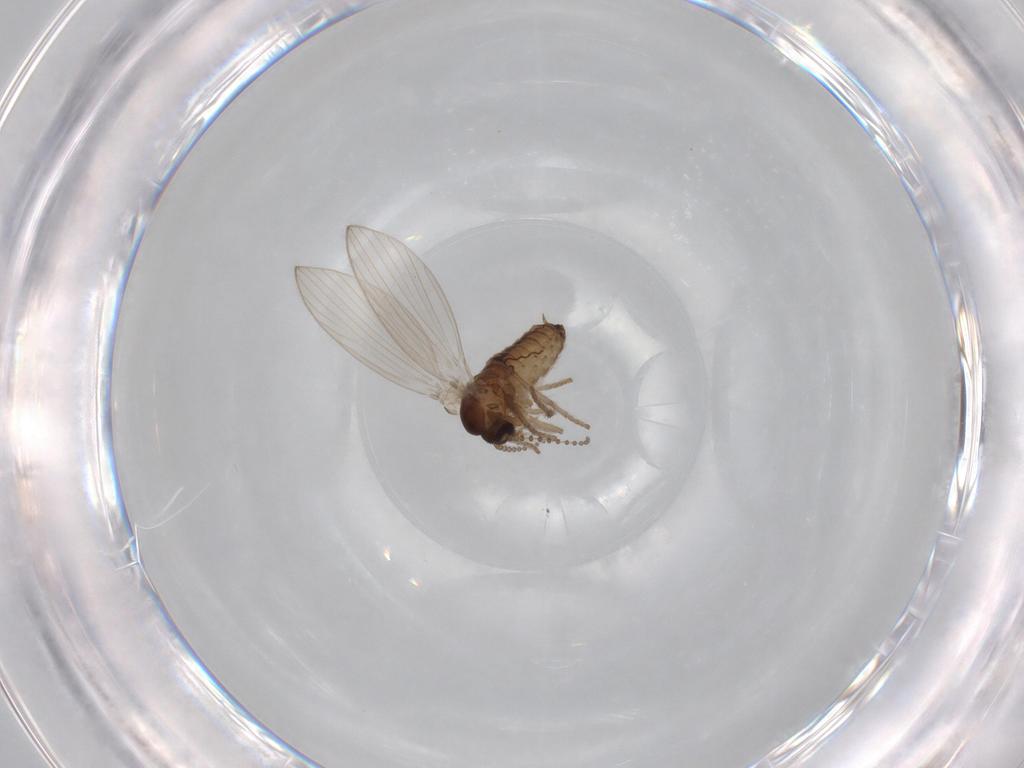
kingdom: Animalia
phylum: Arthropoda
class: Insecta
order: Diptera
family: Psychodidae
